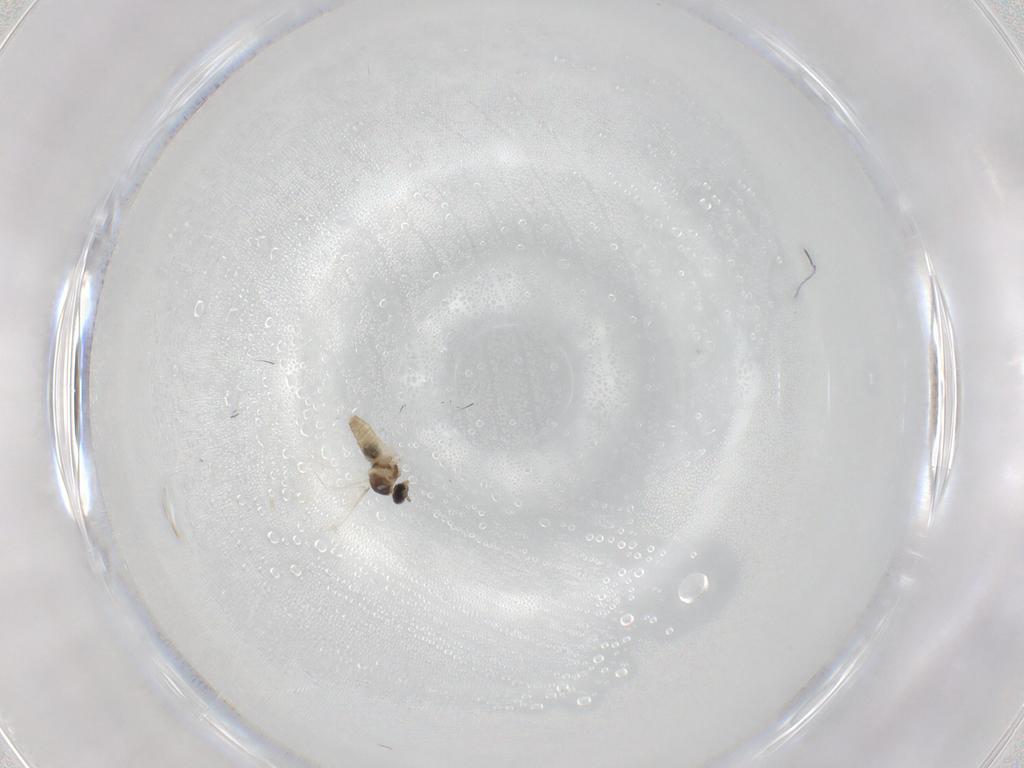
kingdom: Animalia
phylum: Arthropoda
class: Insecta
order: Diptera
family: Cecidomyiidae
